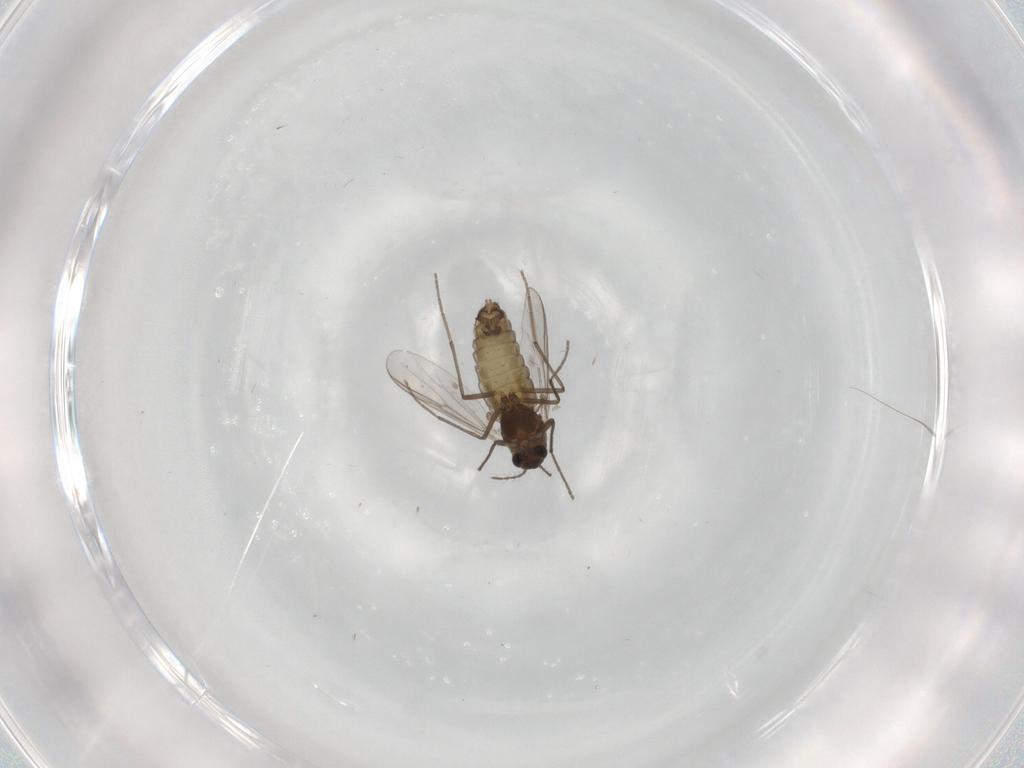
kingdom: Animalia
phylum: Arthropoda
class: Insecta
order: Diptera
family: Chironomidae
